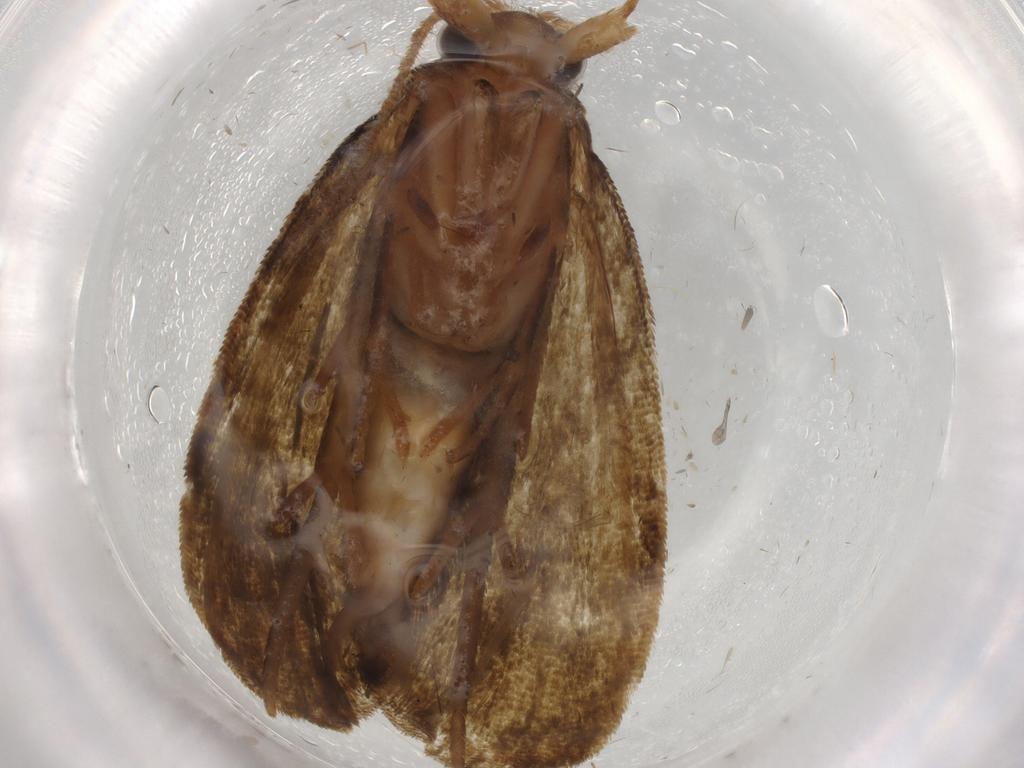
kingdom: Animalia
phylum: Arthropoda
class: Insecta
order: Lepidoptera
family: Geometridae
